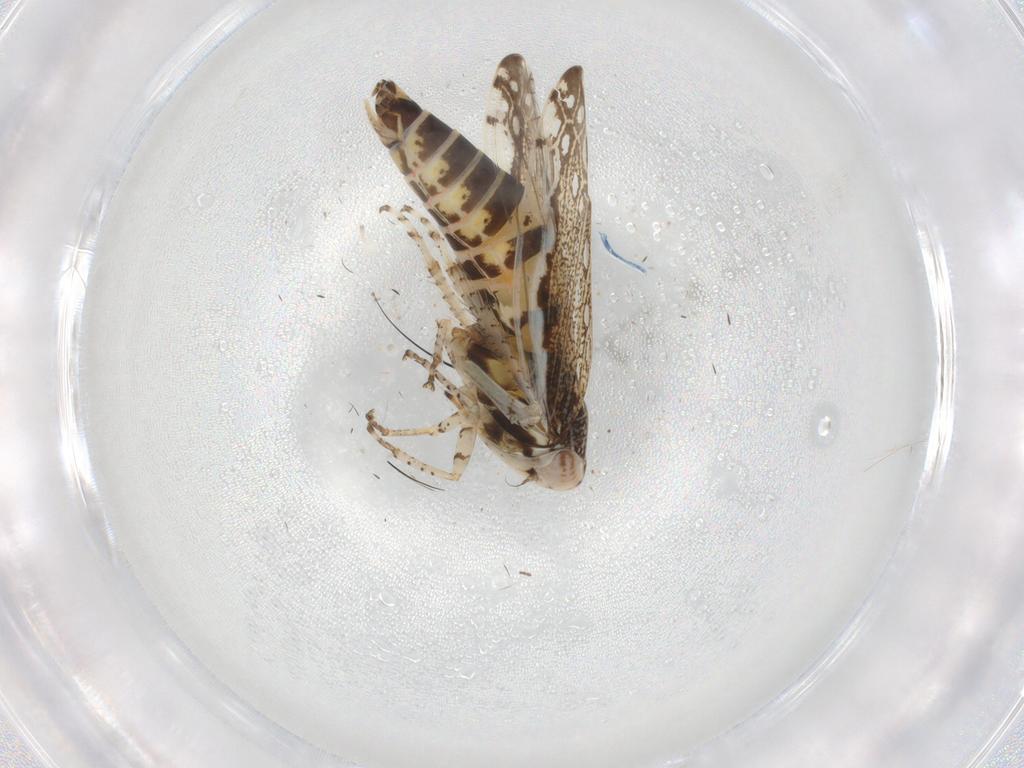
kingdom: Animalia
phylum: Arthropoda
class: Insecta
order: Hemiptera
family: Cicadellidae
